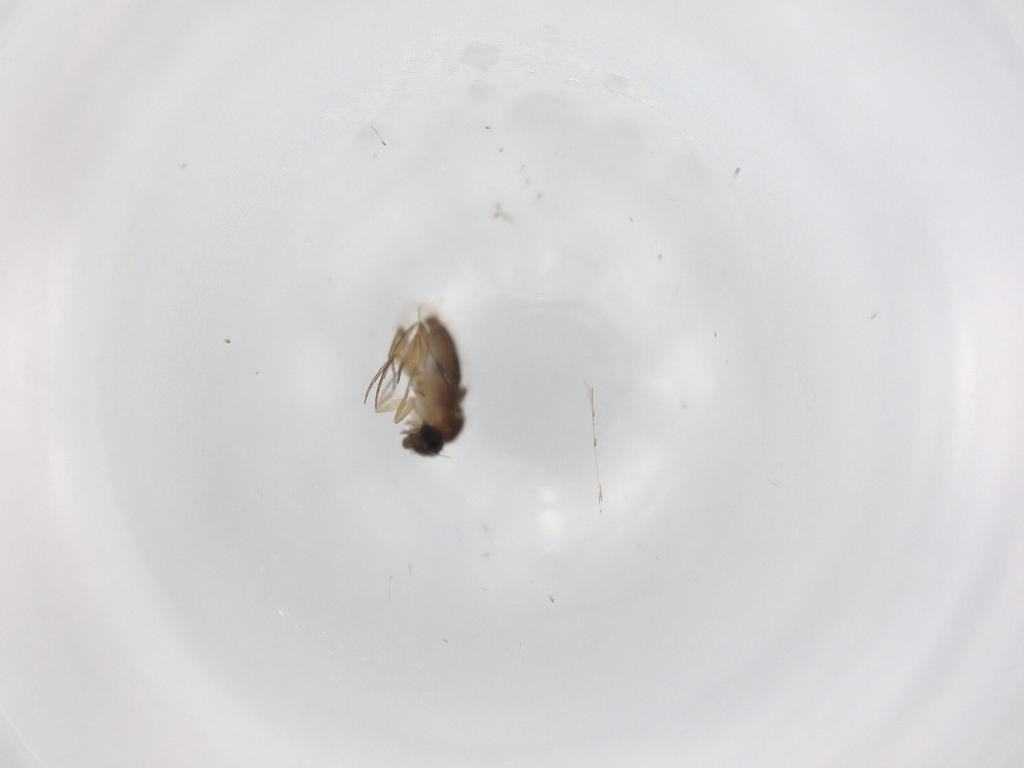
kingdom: Animalia
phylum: Arthropoda
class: Insecta
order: Diptera
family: Phoridae
